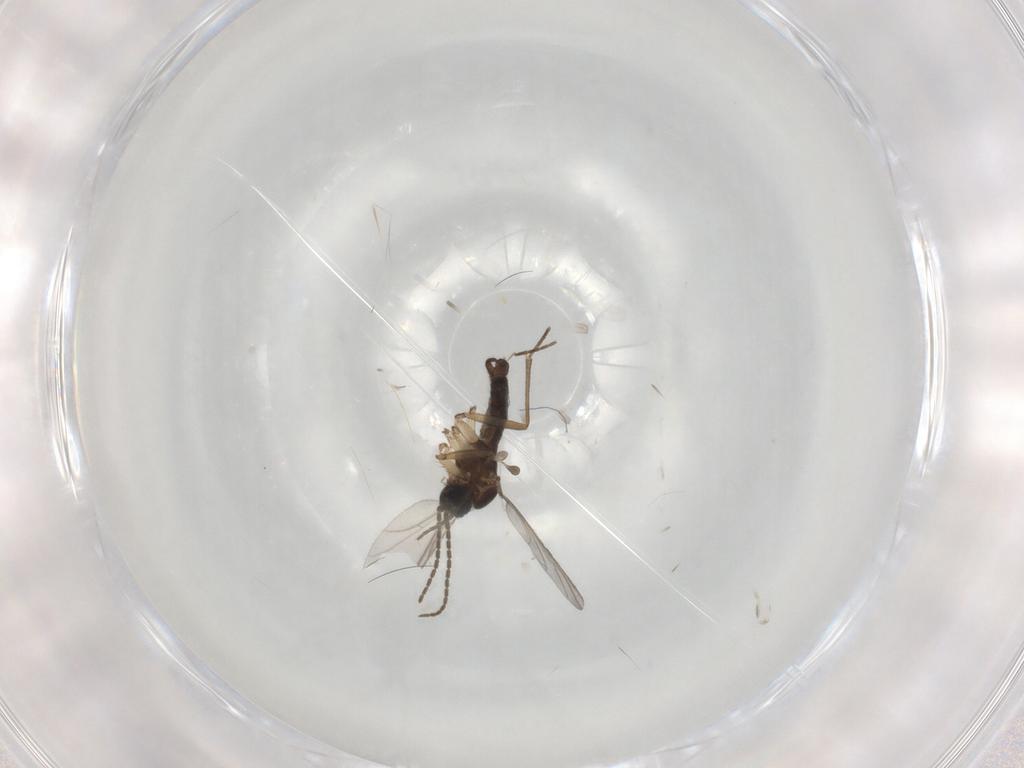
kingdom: Animalia
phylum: Arthropoda
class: Insecta
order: Diptera
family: Sciaridae
